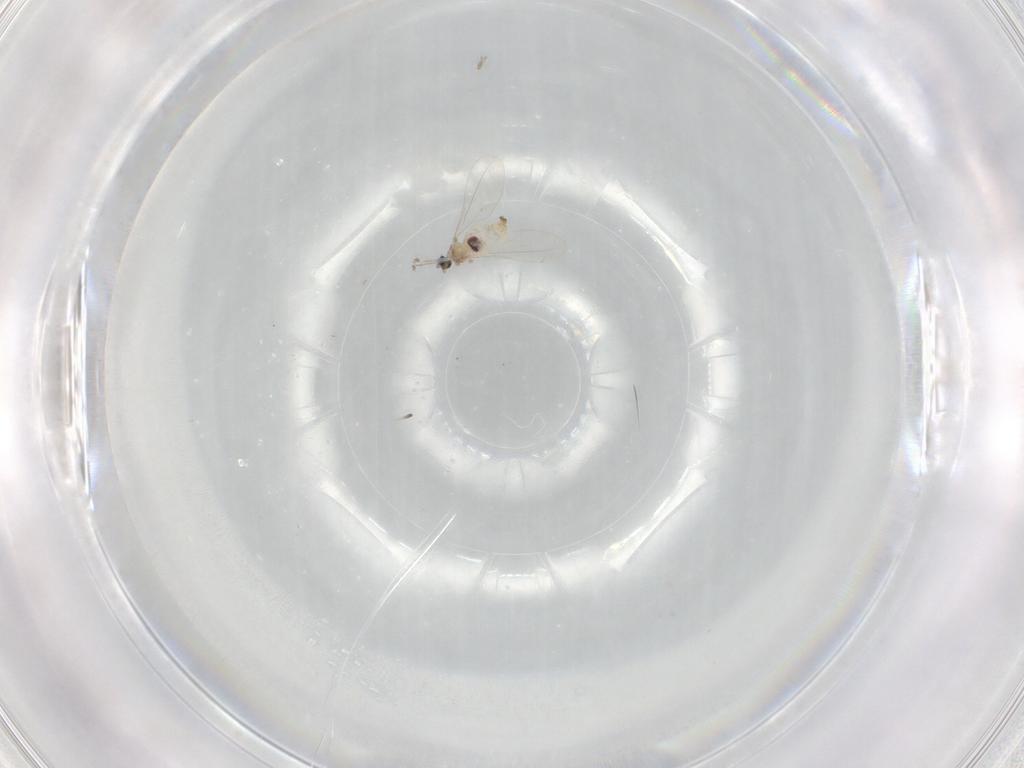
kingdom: Animalia
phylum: Arthropoda
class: Insecta
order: Diptera
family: Cecidomyiidae
